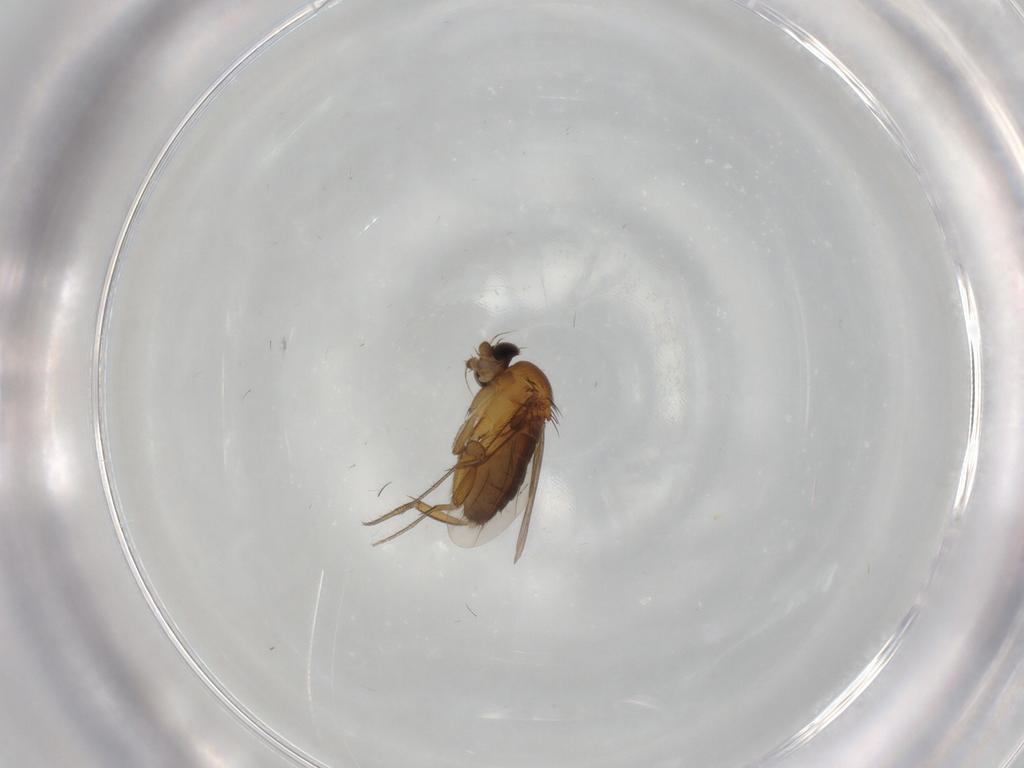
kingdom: Animalia
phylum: Arthropoda
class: Insecta
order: Diptera
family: Phoridae
